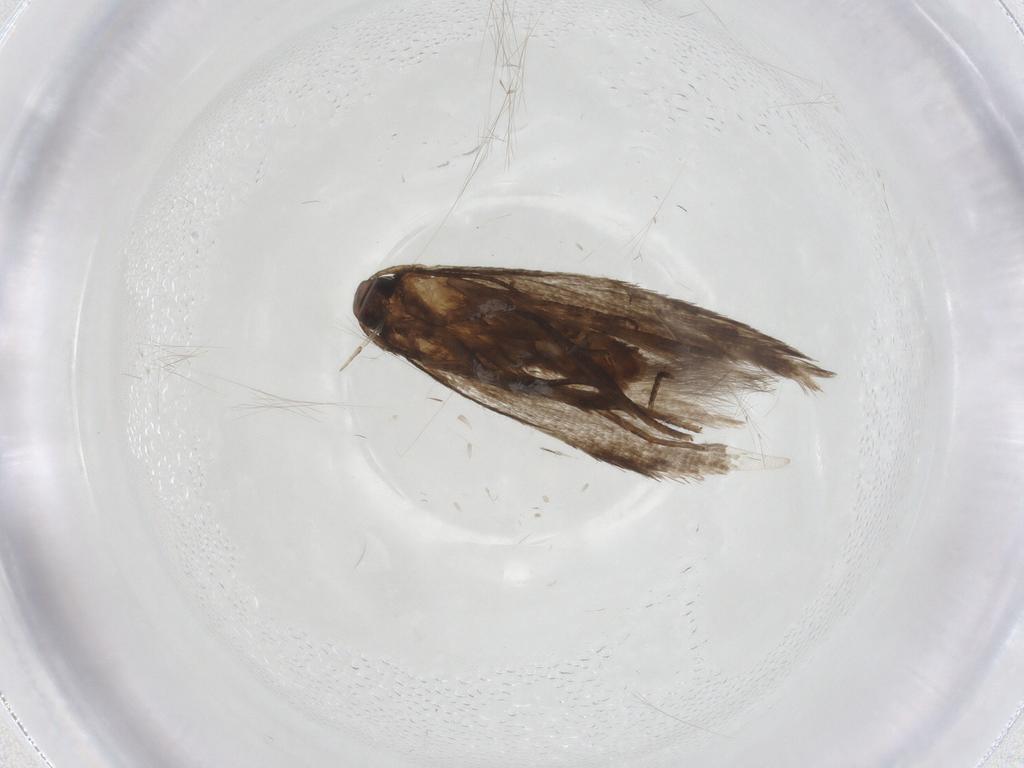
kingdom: Animalia
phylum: Arthropoda
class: Insecta
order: Lepidoptera
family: Gelechiidae
